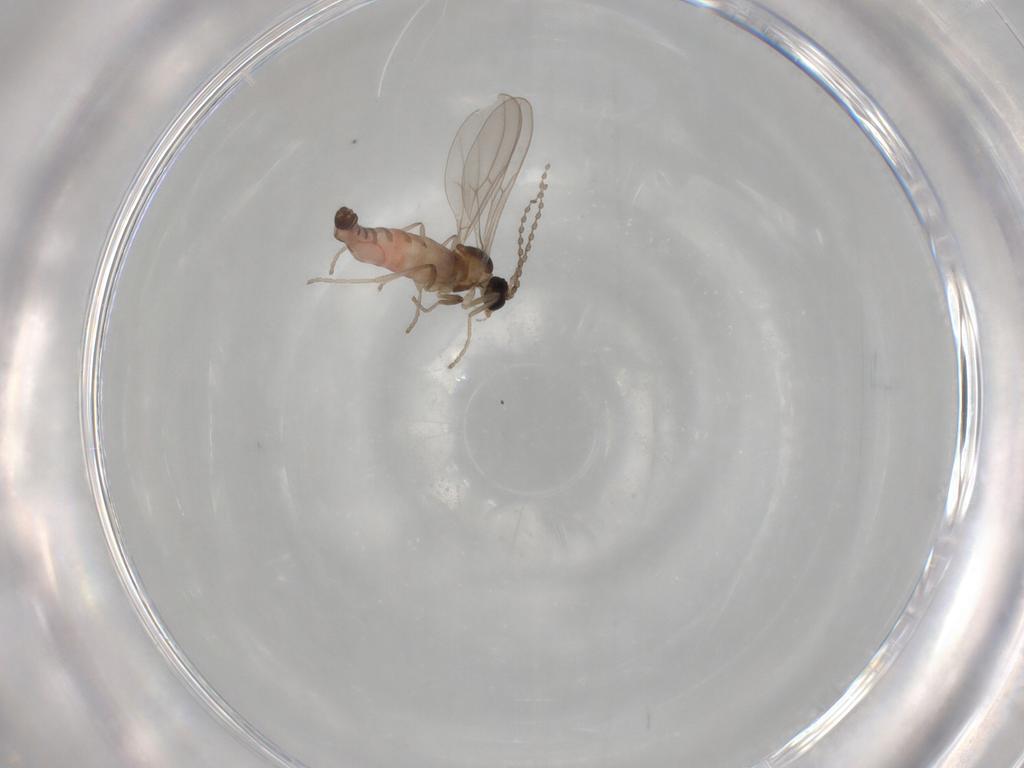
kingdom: Animalia
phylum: Arthropoda
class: Insecta
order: Diptera
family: Cecidomyiidae
